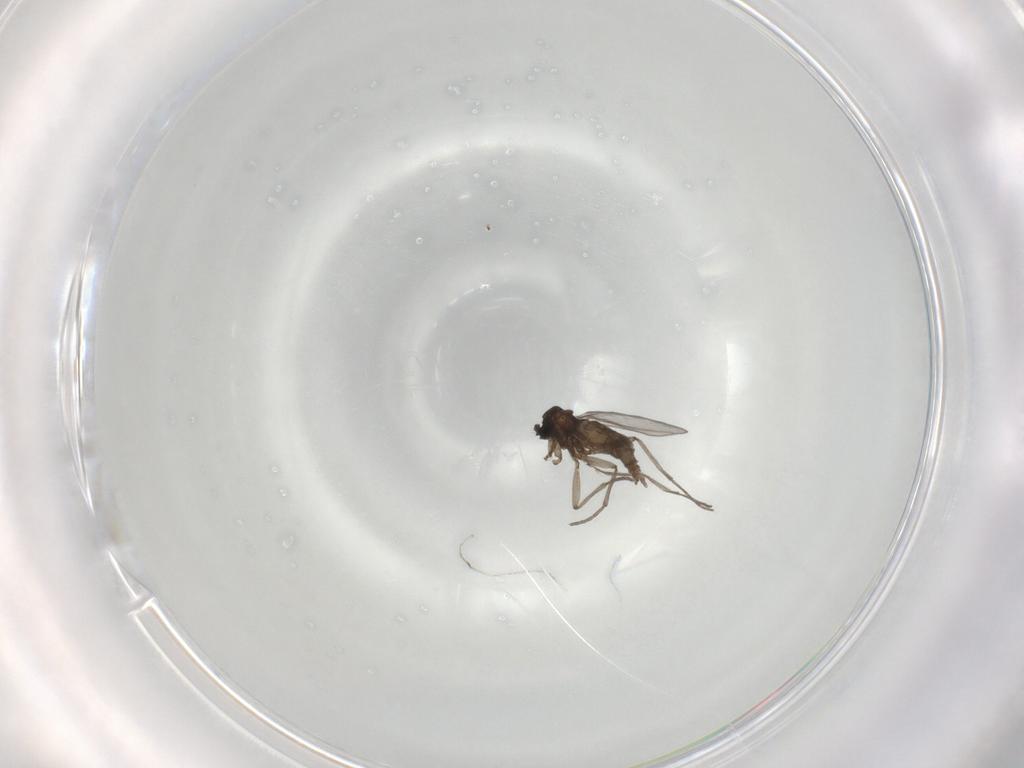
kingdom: Animalia
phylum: Arthropoda
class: Insecta
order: Diptera
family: Sciaridae
